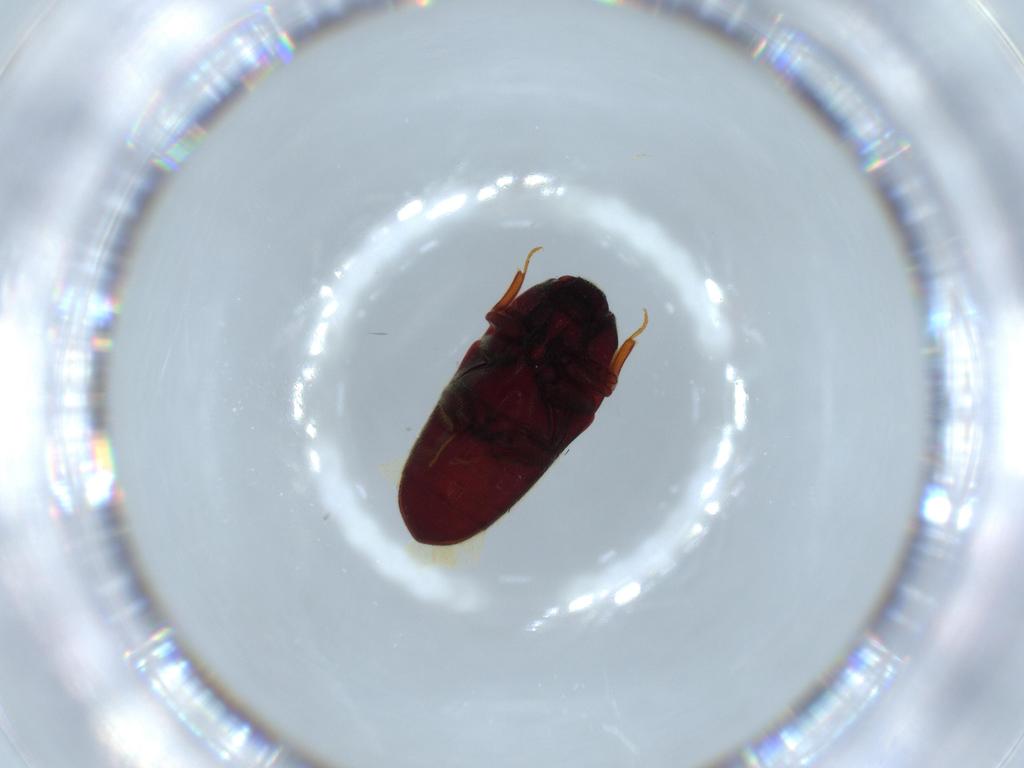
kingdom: Animalia
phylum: Arthropoda
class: Insecta
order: Coleoptera
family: Throscidae
